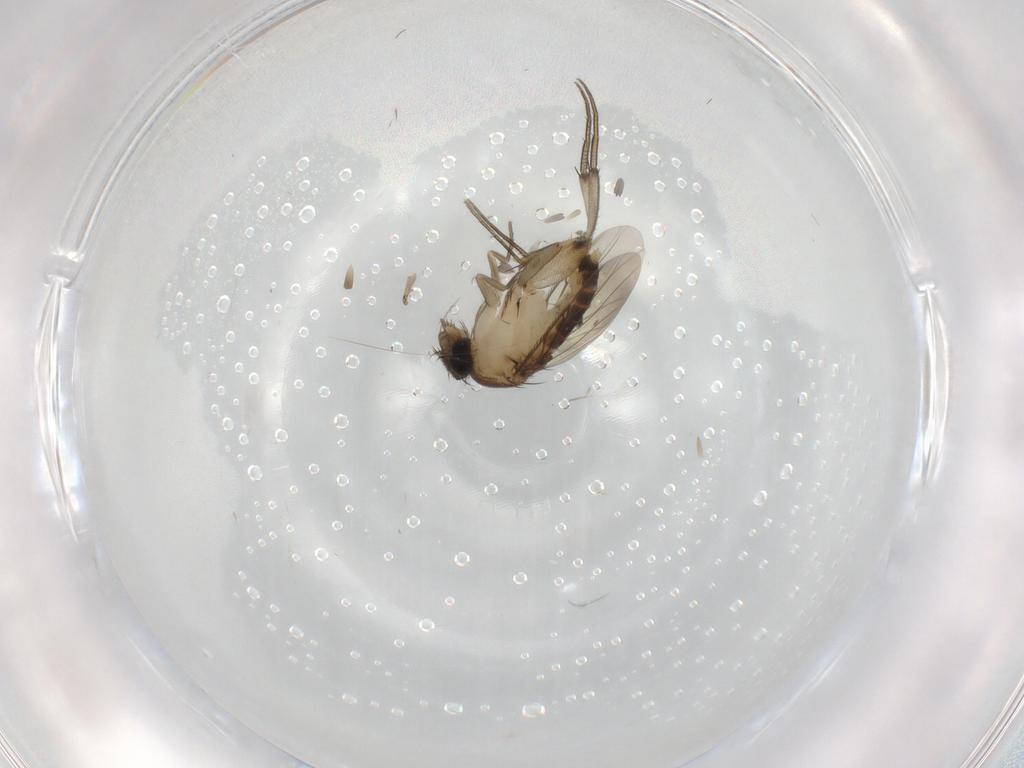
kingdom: Animalia
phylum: Arthropoda
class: Insecta
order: Diptera
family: Phoridae
